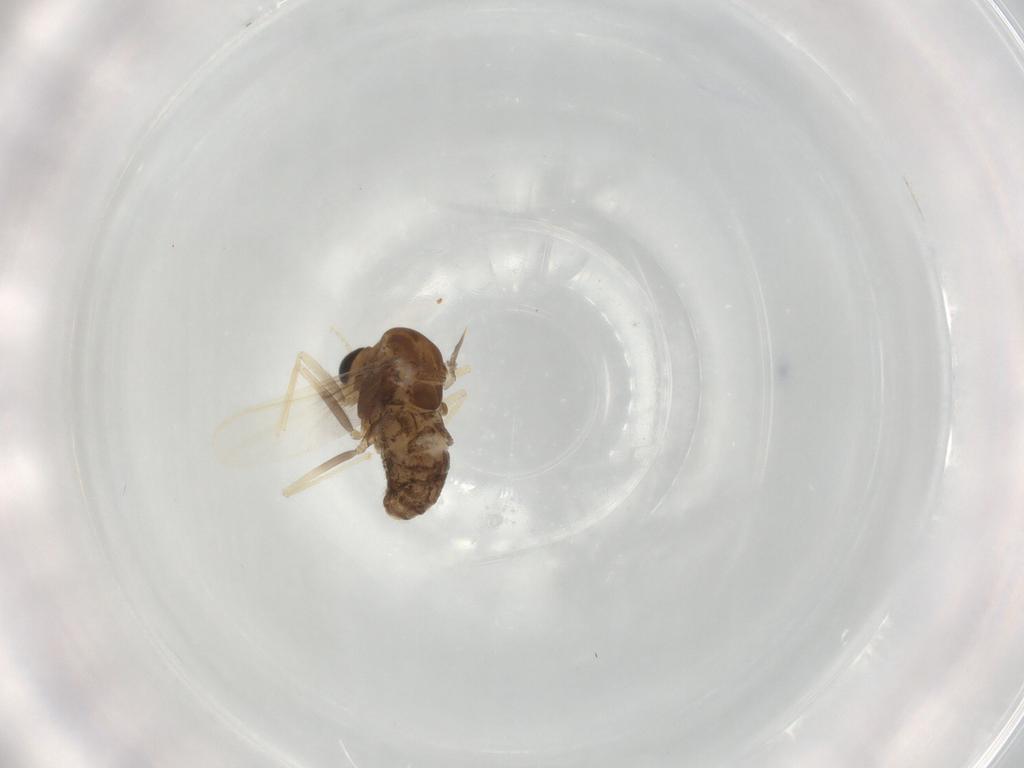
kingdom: Animalia
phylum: Arthropoda
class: Insecta
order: Diptera
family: Chironomidae
